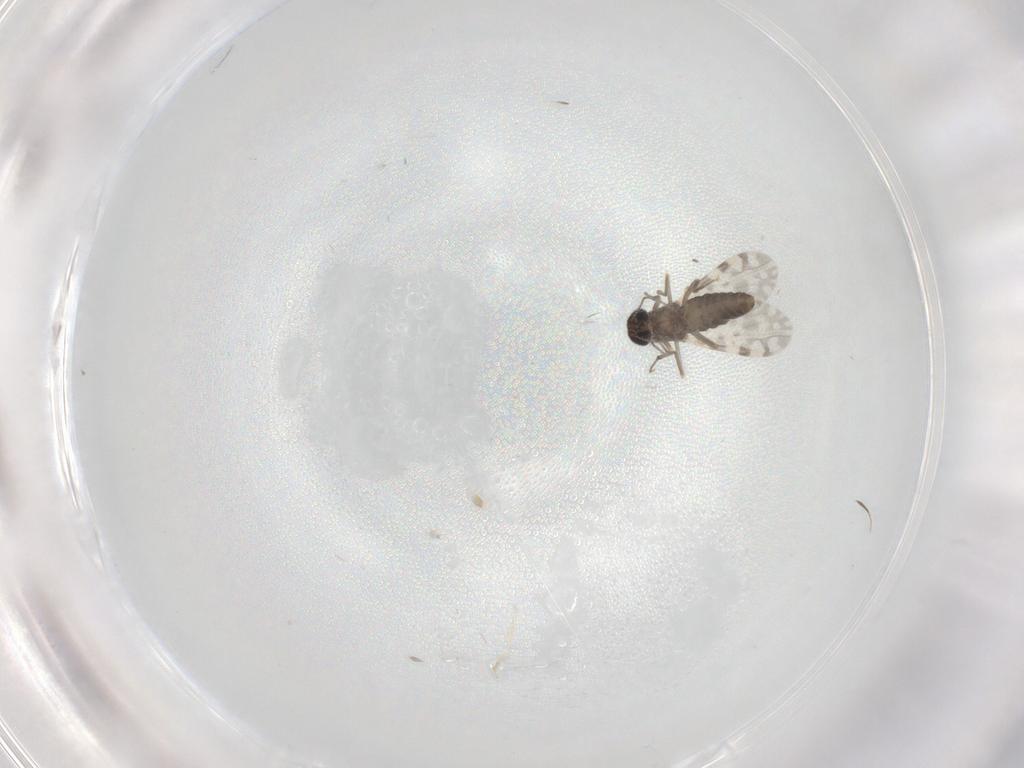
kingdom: Animalia
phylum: Arthropoda
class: Insecta
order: Diptera
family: Ceratopogonidae
